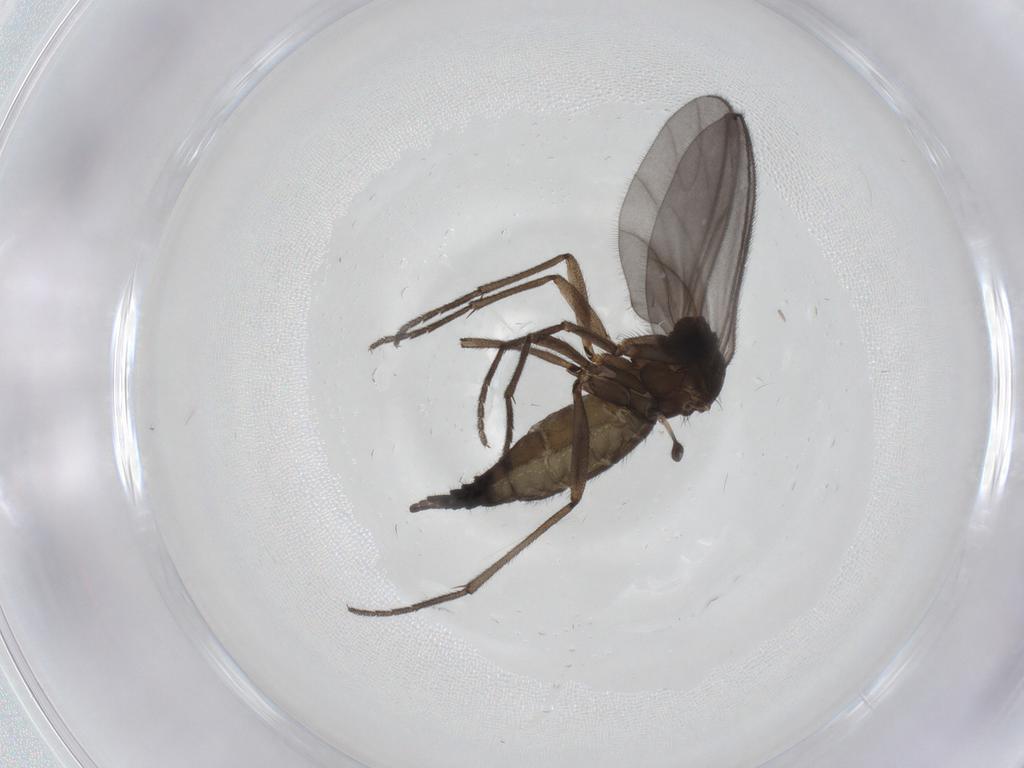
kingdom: Animalia
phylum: Arthropoda
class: Insecta
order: Diptera
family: Sciaridae
